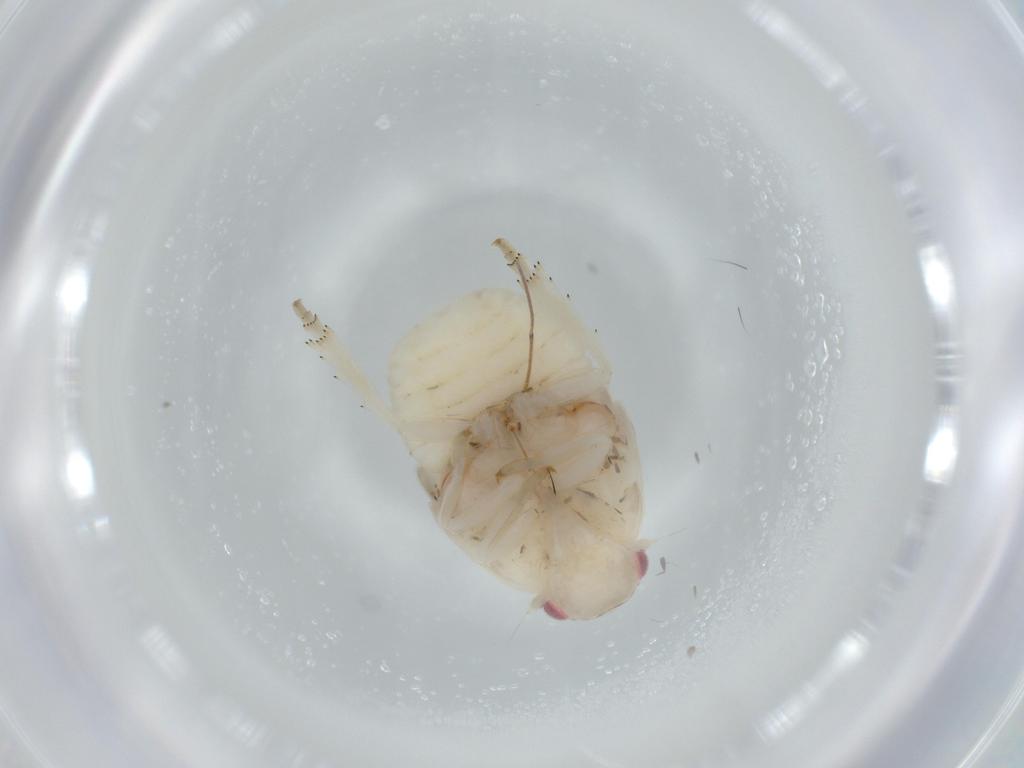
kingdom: Animalia
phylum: Arthropoda
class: Insecta
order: Hemiptera
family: Flatidae
